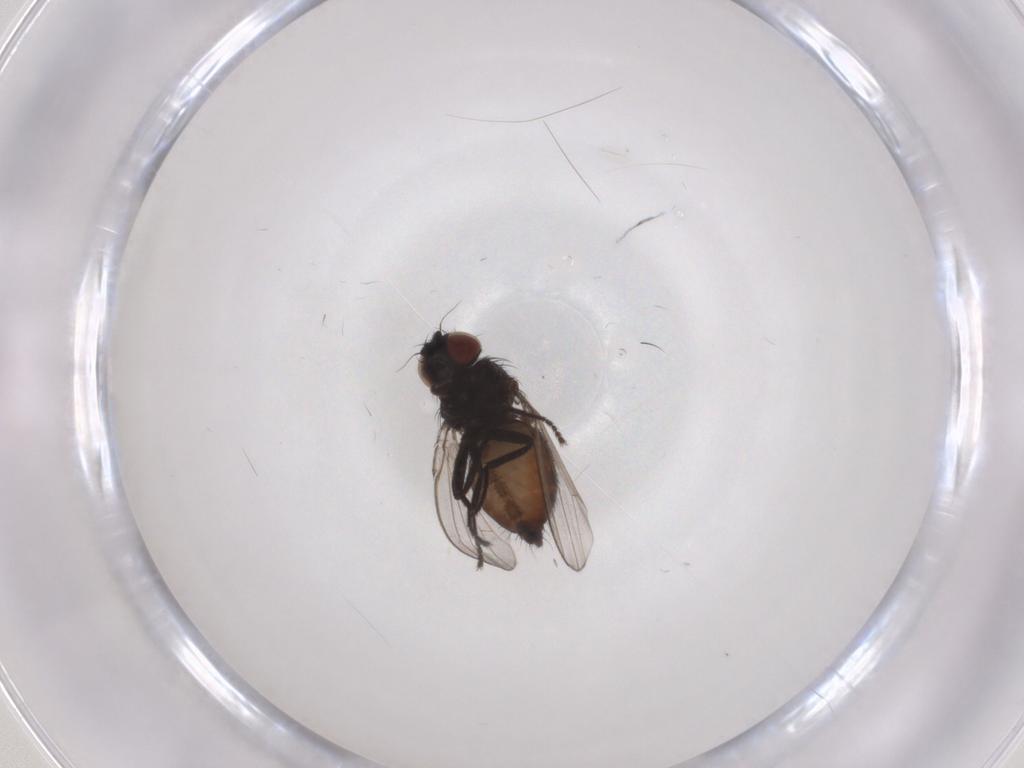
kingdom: Animalia
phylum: Arthropoda
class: Insecta
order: Diptera
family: Milichiidae
